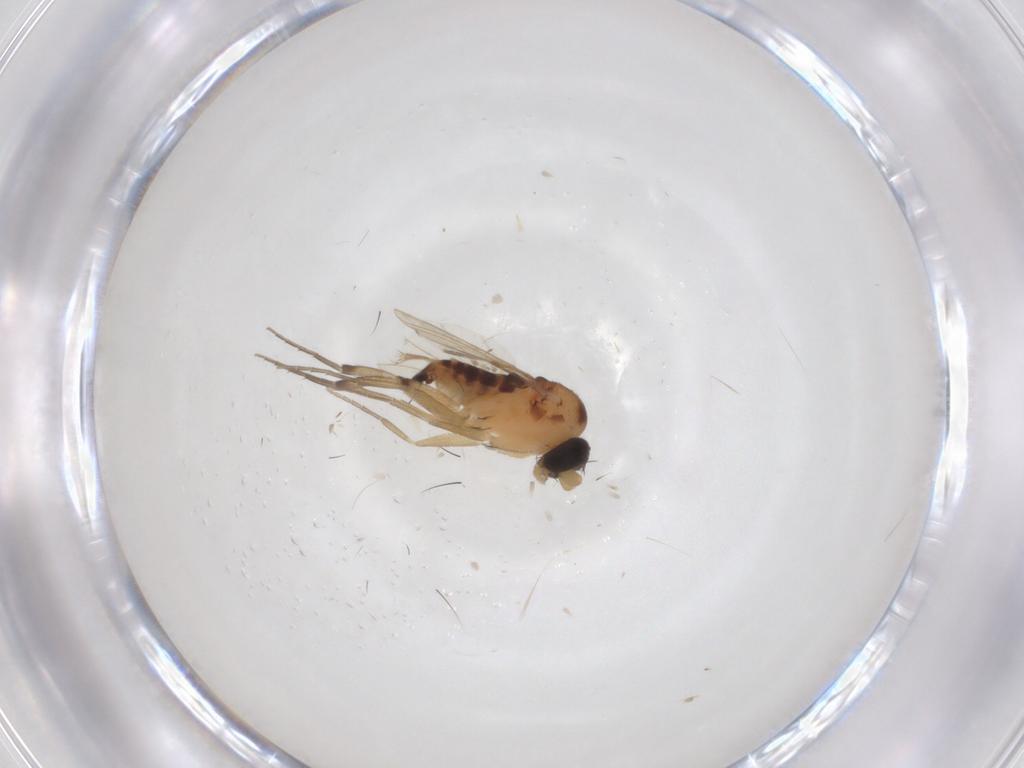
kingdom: Animalia
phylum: Arthropoda
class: Insecta
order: Diptera
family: Phoridae
